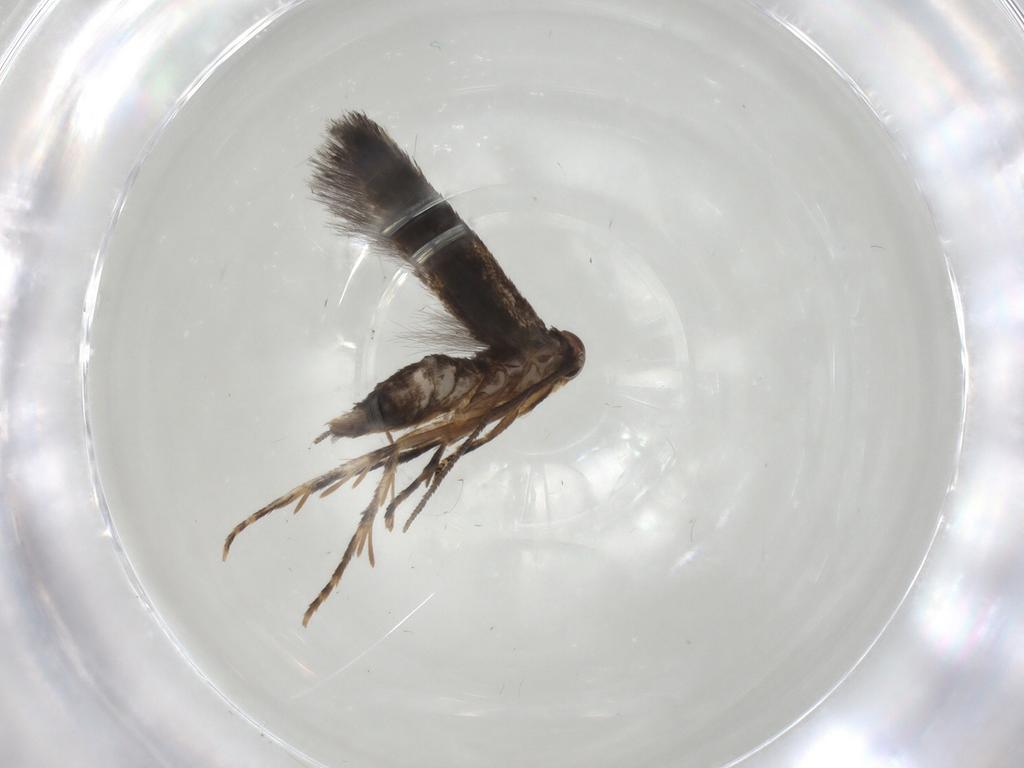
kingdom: Animalia
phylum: Arthropoda
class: Insecta
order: Lepidoptera
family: Elachistidae
